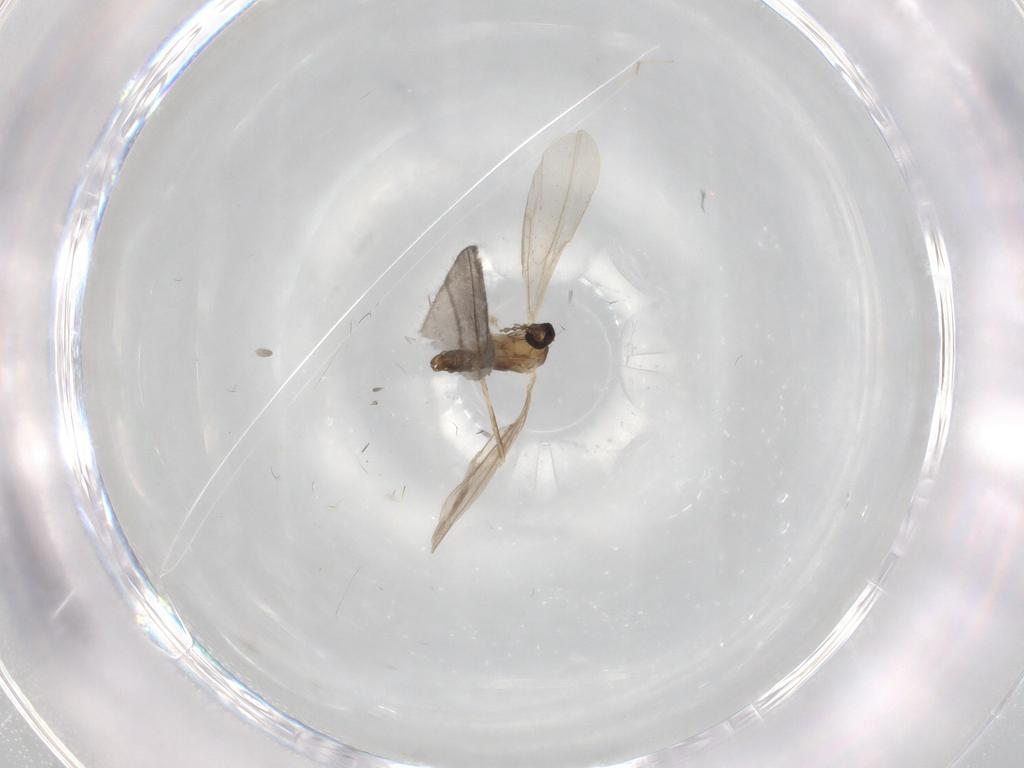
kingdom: Animalia
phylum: Arthropoda
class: Insecta
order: Diptera
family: Cecidomyiidae
